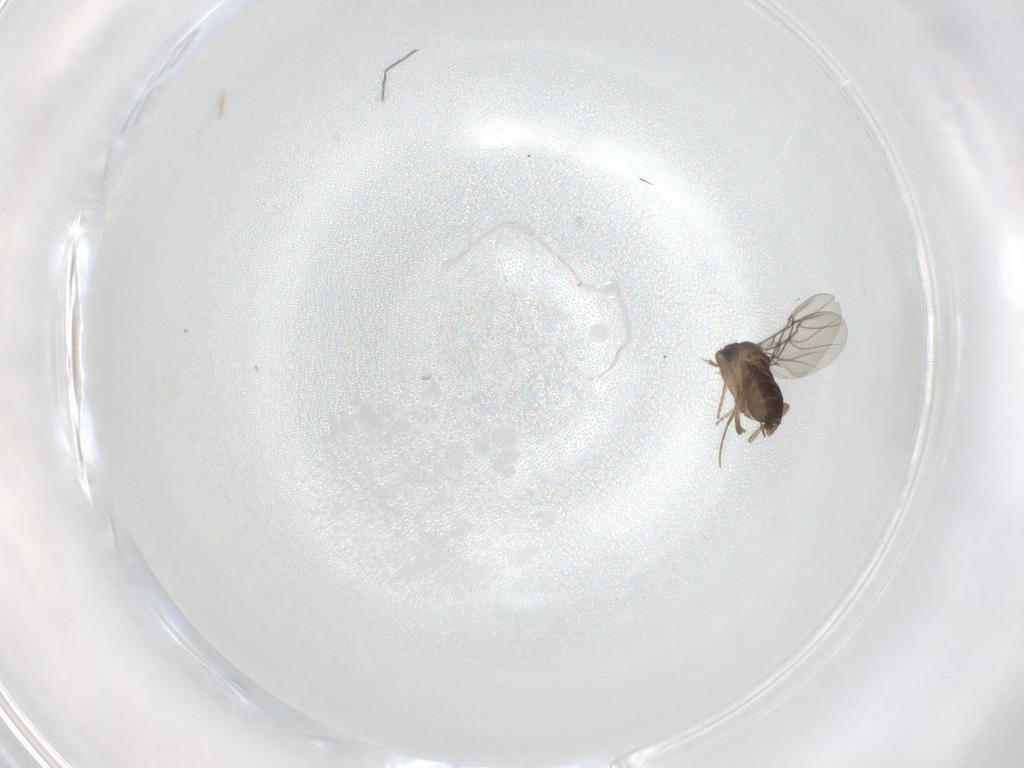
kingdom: Animalia
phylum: Arthropoda
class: Insecta
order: Diptera
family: Phoridae
